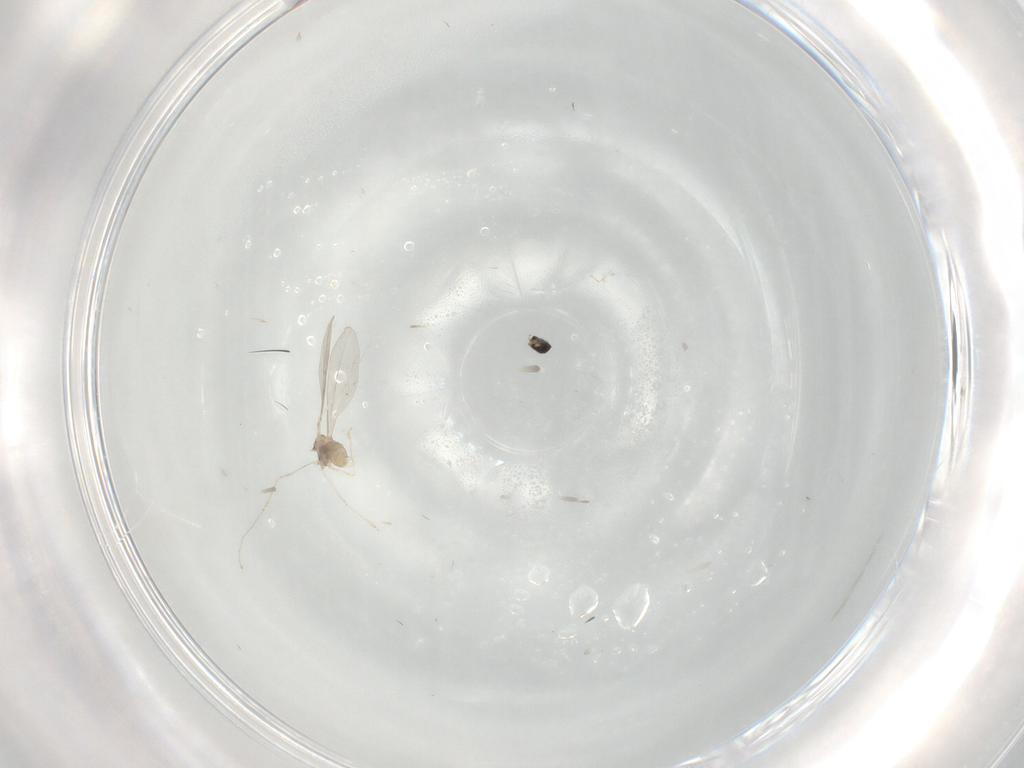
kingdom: Animalia
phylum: Arthropoda
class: Insecta
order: Diptera
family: Cecidomyiidae
